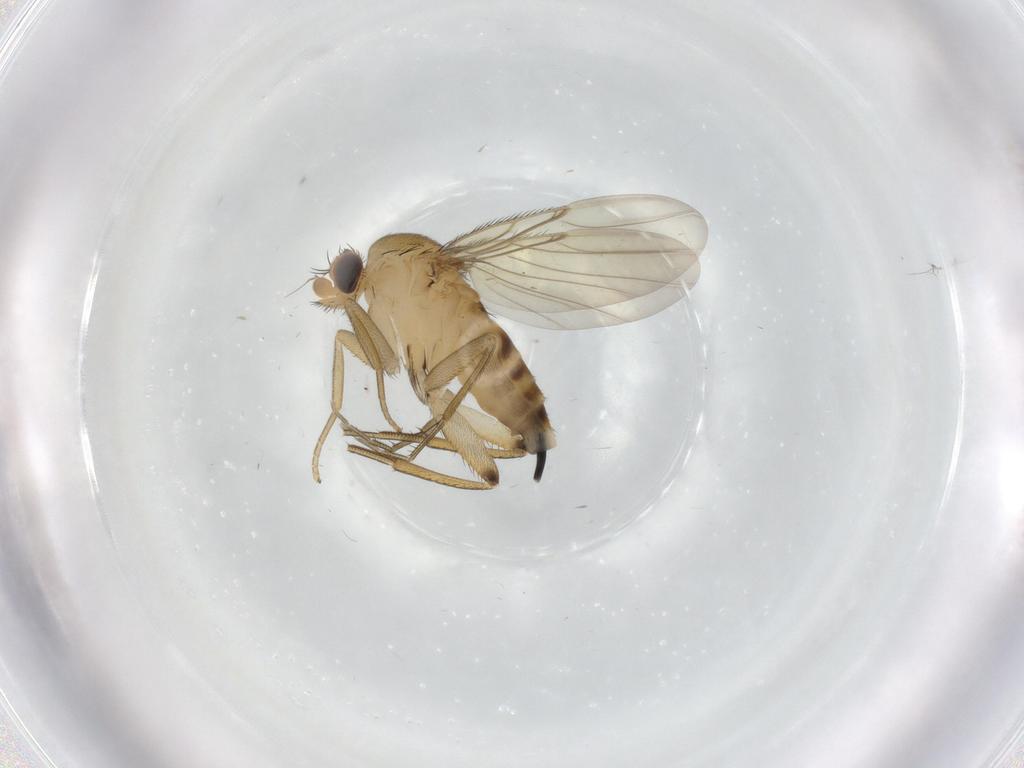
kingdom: Animalia
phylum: Arthropoda
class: Insecta
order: Diptera
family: Phoridae
